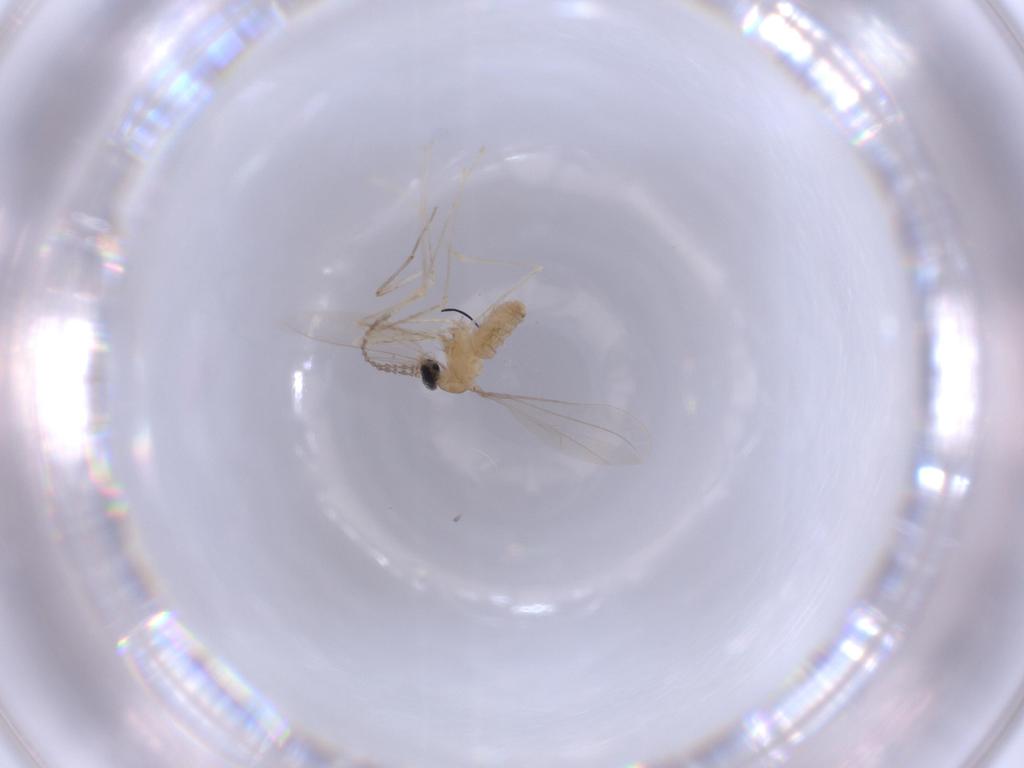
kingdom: Animalia
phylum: Arthropoda
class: Insecta
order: Diptera
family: Cecidomyiidae
